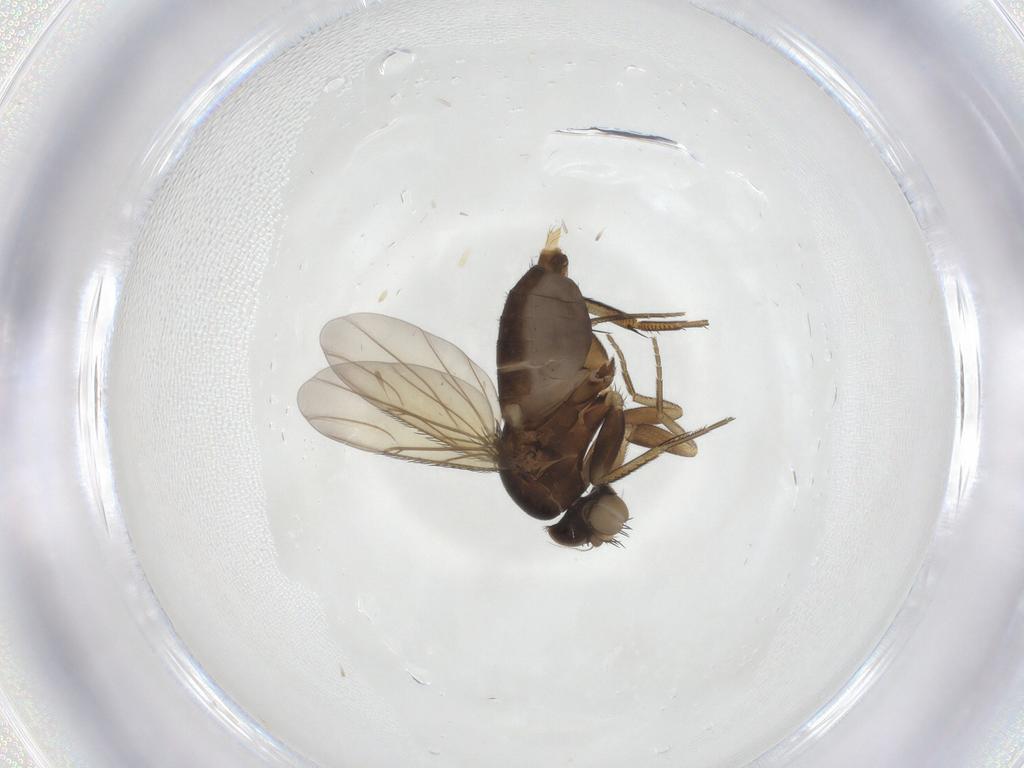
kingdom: Animalia
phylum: Arthropoda
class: Insecta
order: Diptera
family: Phoridae
